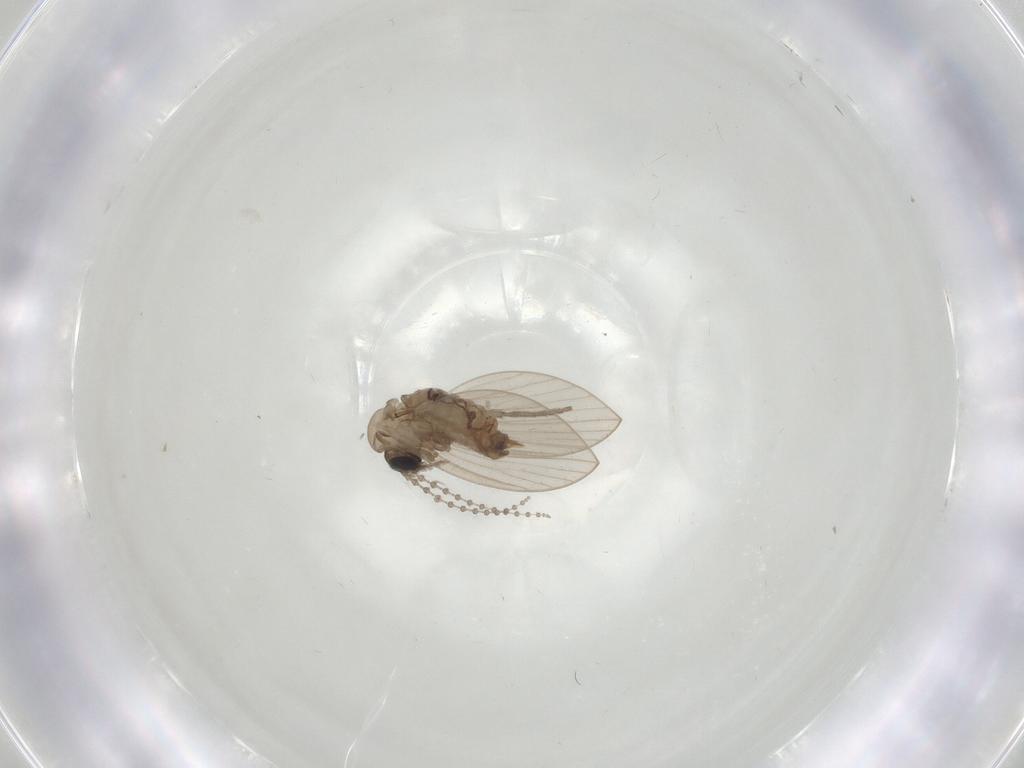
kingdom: Animalia
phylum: Arthropoda
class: Insecta
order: Diptera
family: Psychodidae
